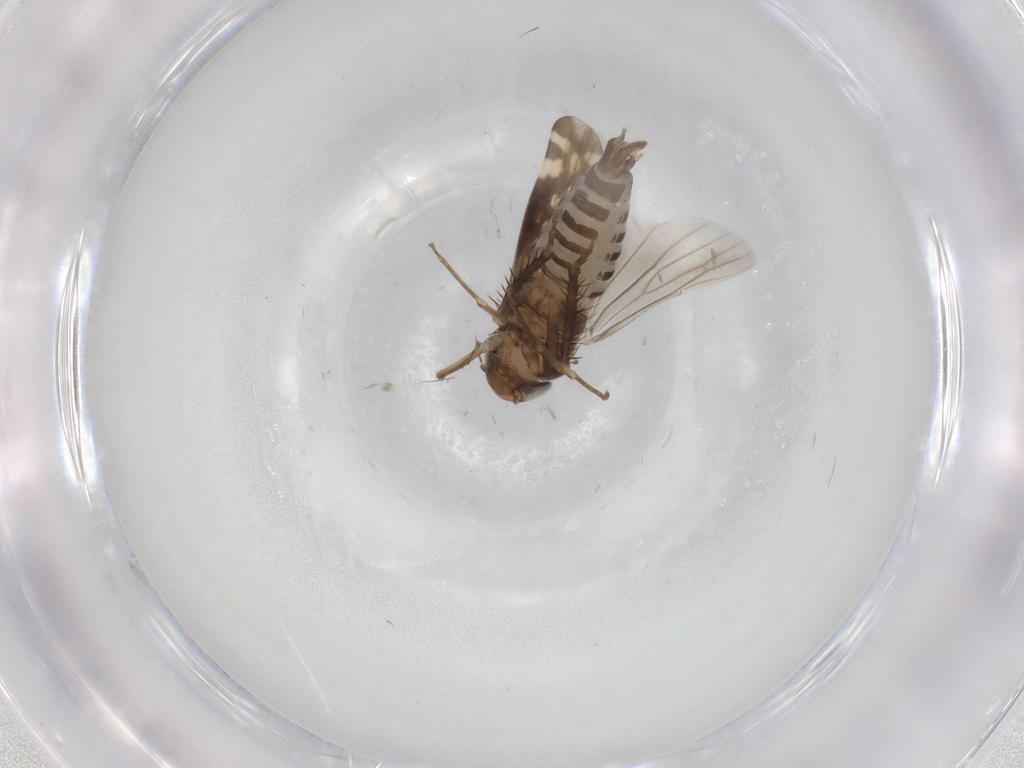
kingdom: Animalia
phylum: Arthropoda
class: Insecta
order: Hemiptera
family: Cicadellidae
